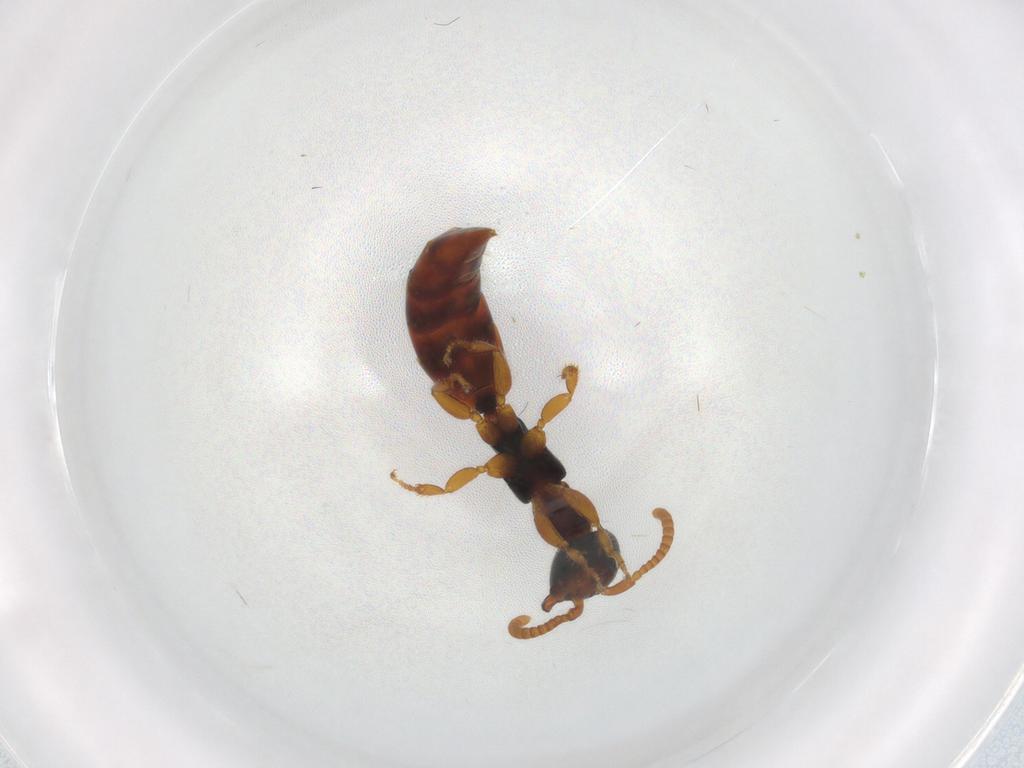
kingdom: Animalia
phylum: Arthropoda
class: Insecta
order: Hymenoptera
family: Bethylidae
